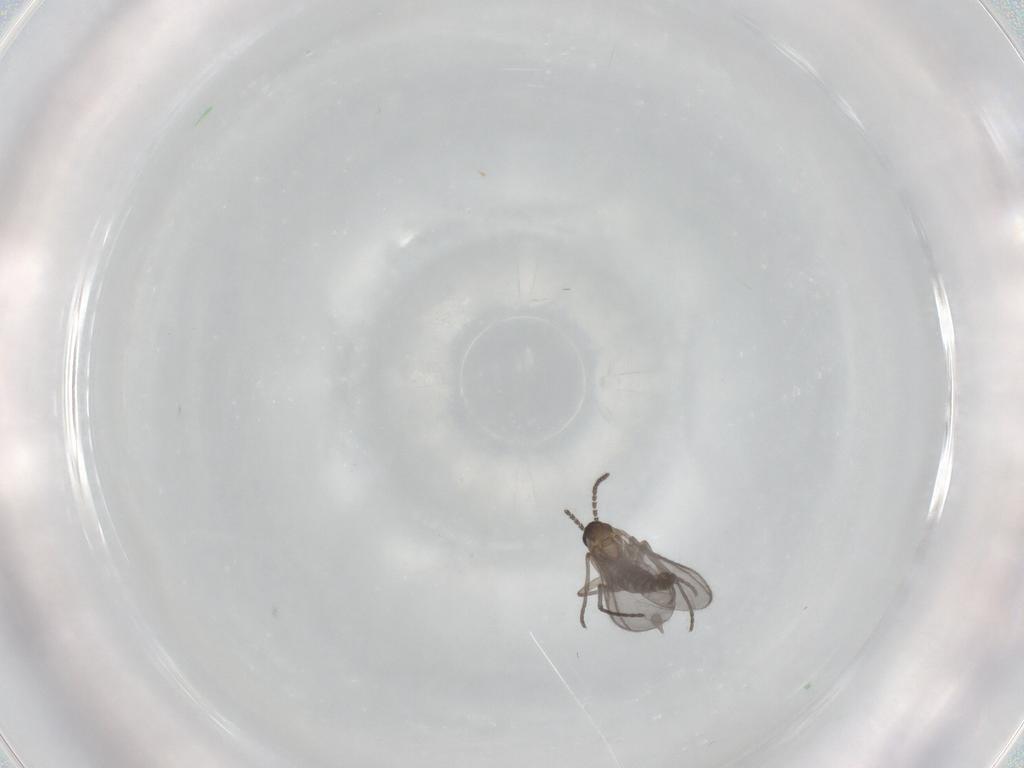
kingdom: Animalia
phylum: Arthropoda
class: Insecta
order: Diptera
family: Sciaridae
